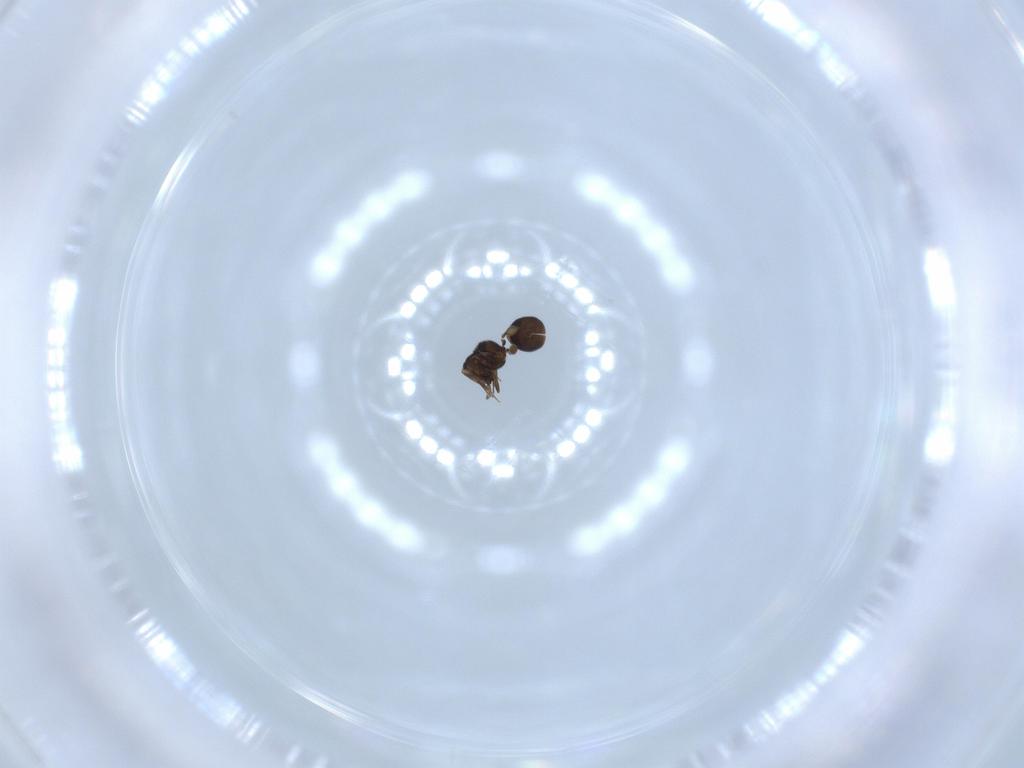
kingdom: Animalia
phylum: Arthropoda
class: Insecta
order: Hymenoptera
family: Scelionidae
